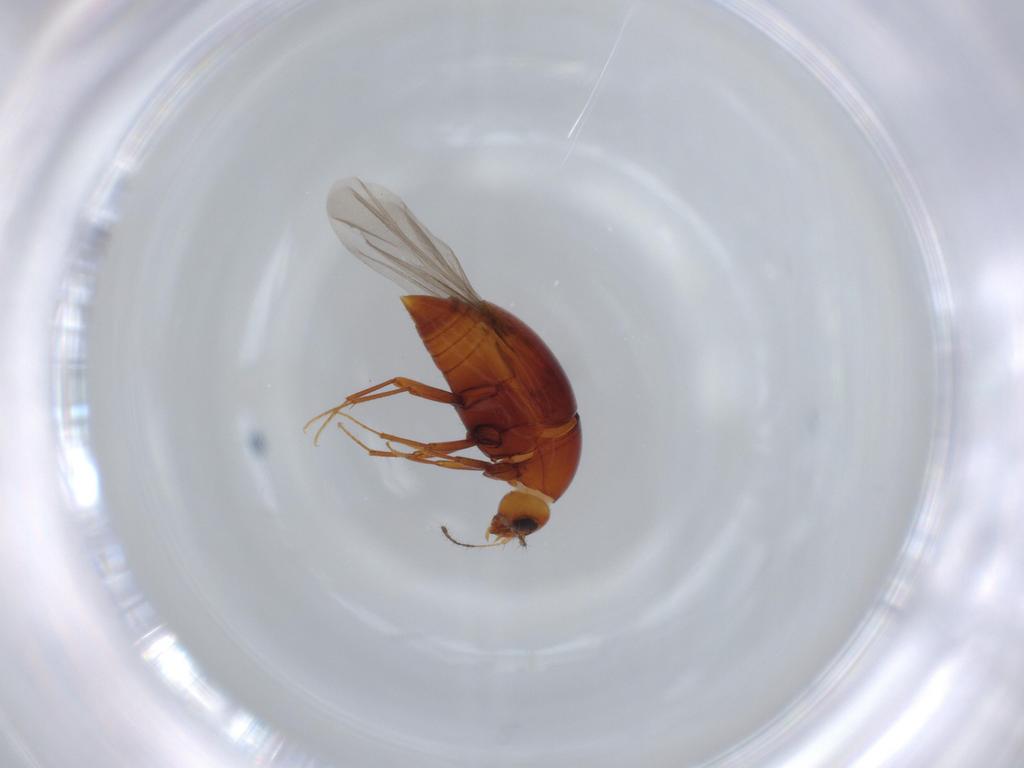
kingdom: Animalia
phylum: Arthropoda
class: Insecta
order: Coleoptera
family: Staphylinidae
